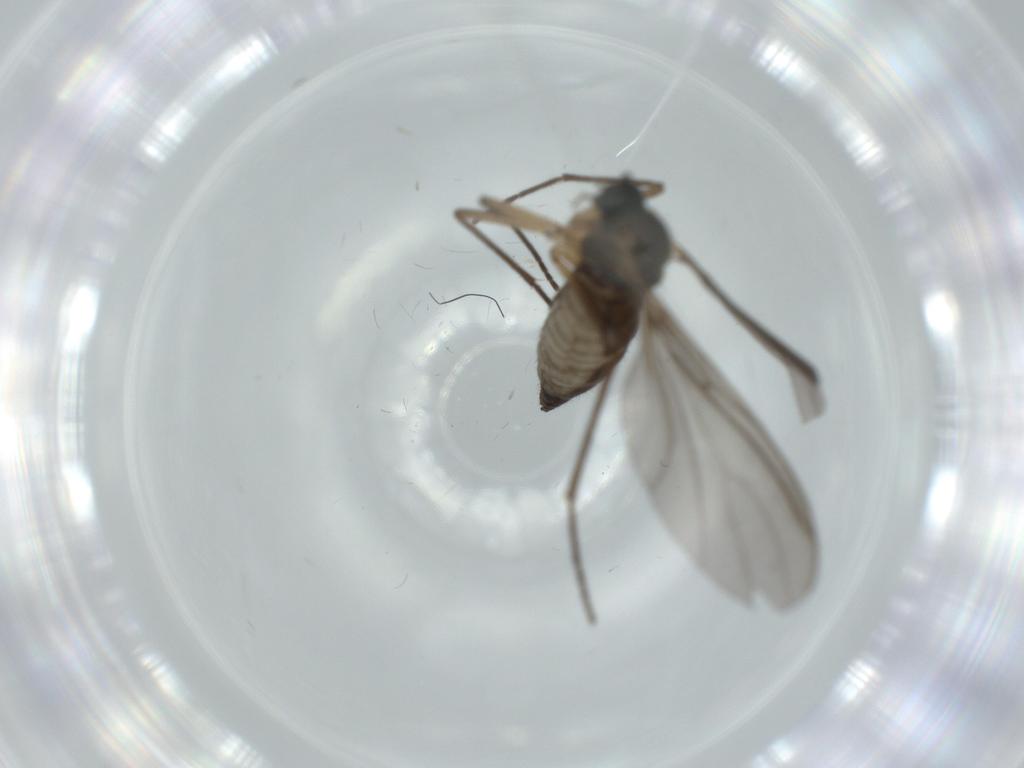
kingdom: Animalia
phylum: Arthropoda
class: Insecta
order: Diptera
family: Sciaridae
